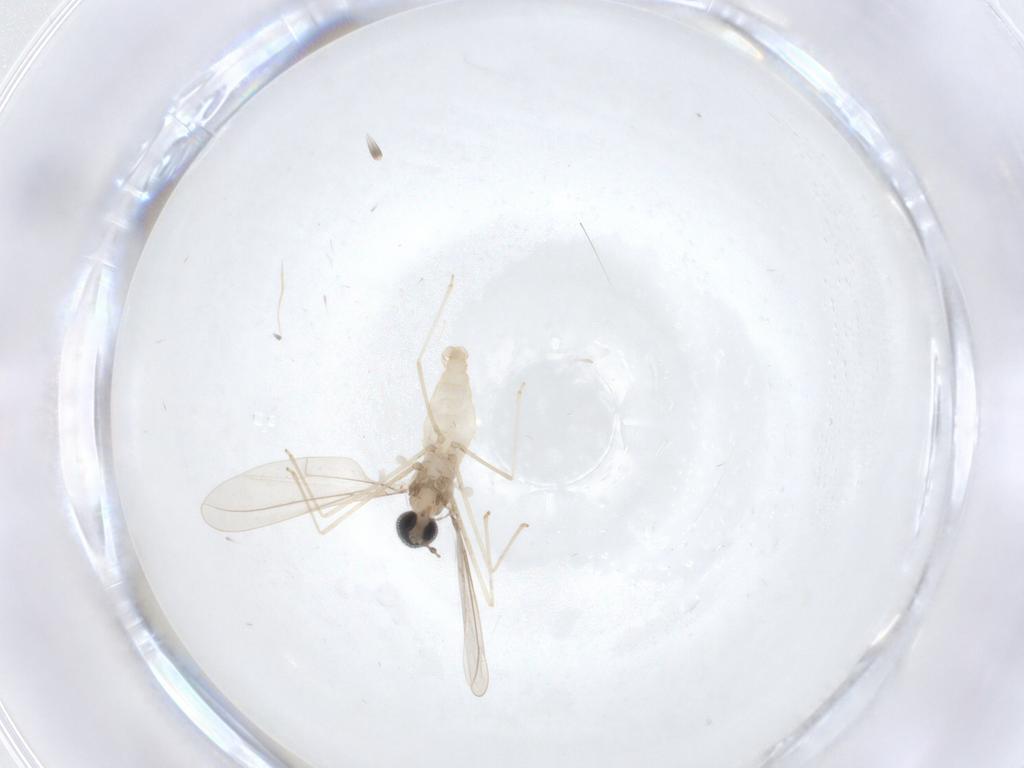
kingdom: Animalia
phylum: Arthropoda
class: Insecta
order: Diptera
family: Cecidomyiidae
